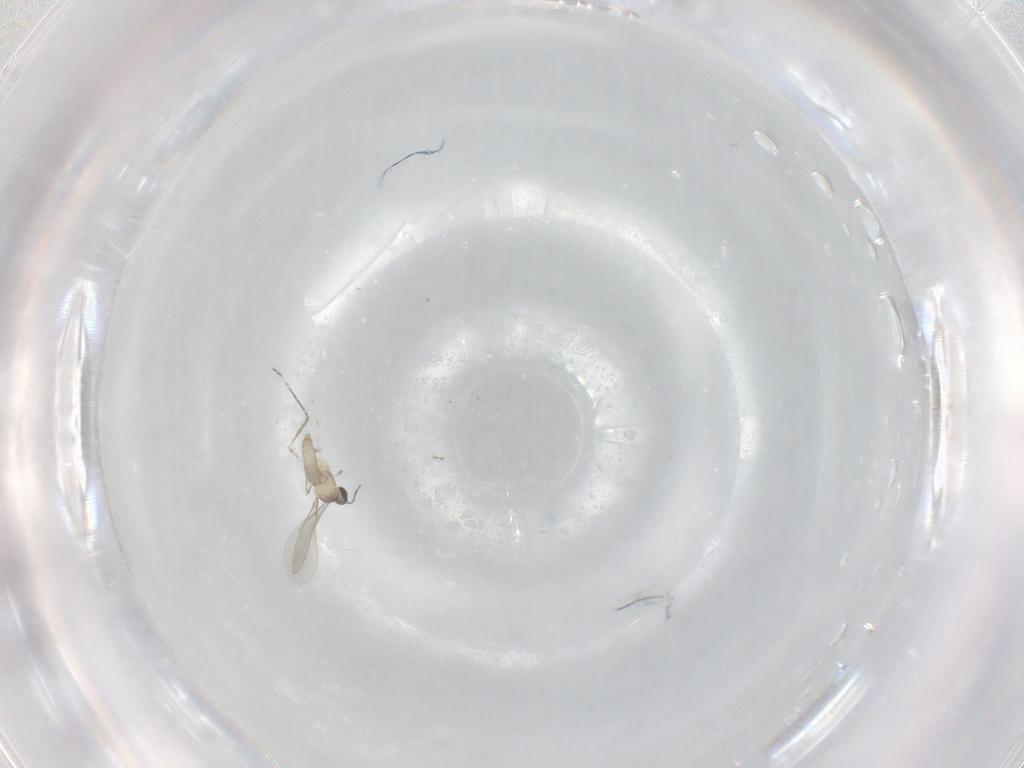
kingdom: Animalia
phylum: Arthropoda
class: Insecta
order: Diptera
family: Cecidomyiidae
